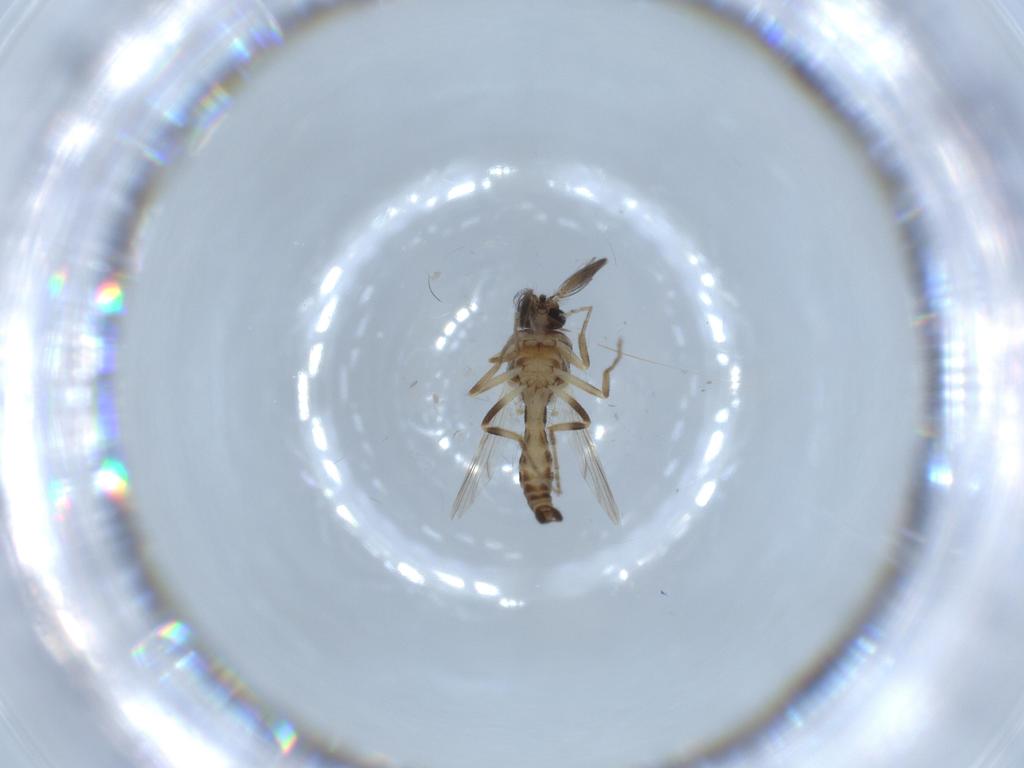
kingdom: Animalia
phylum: Arthropoda
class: Insecta
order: Diptera
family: Ceratopogonidae
